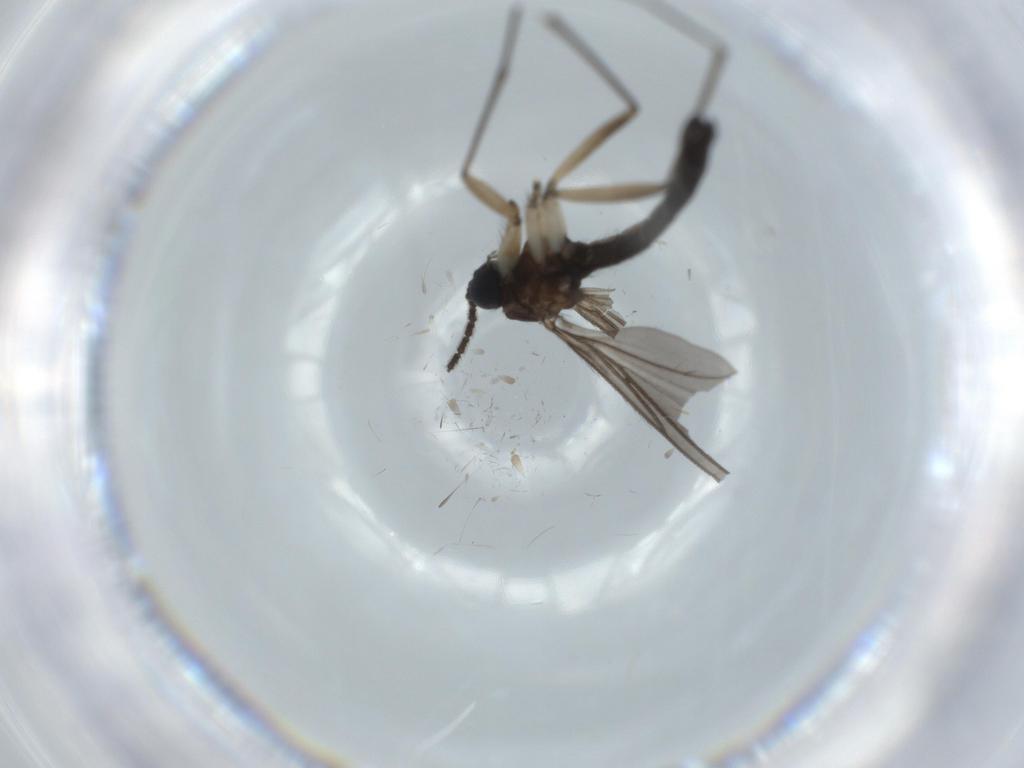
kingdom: Animalia
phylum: Arthropoda
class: Insecta
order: Diptera
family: Sciaridae
